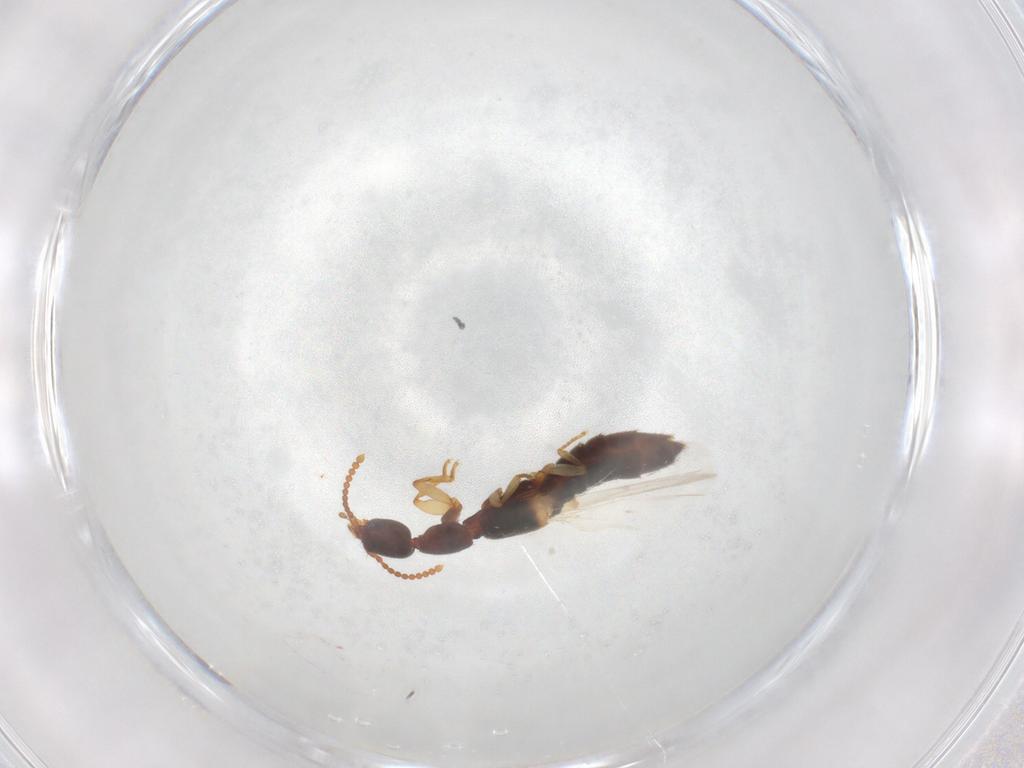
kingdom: Animalia
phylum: Arthropoda
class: Insecta
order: Coleoptera
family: Staphylinidae
